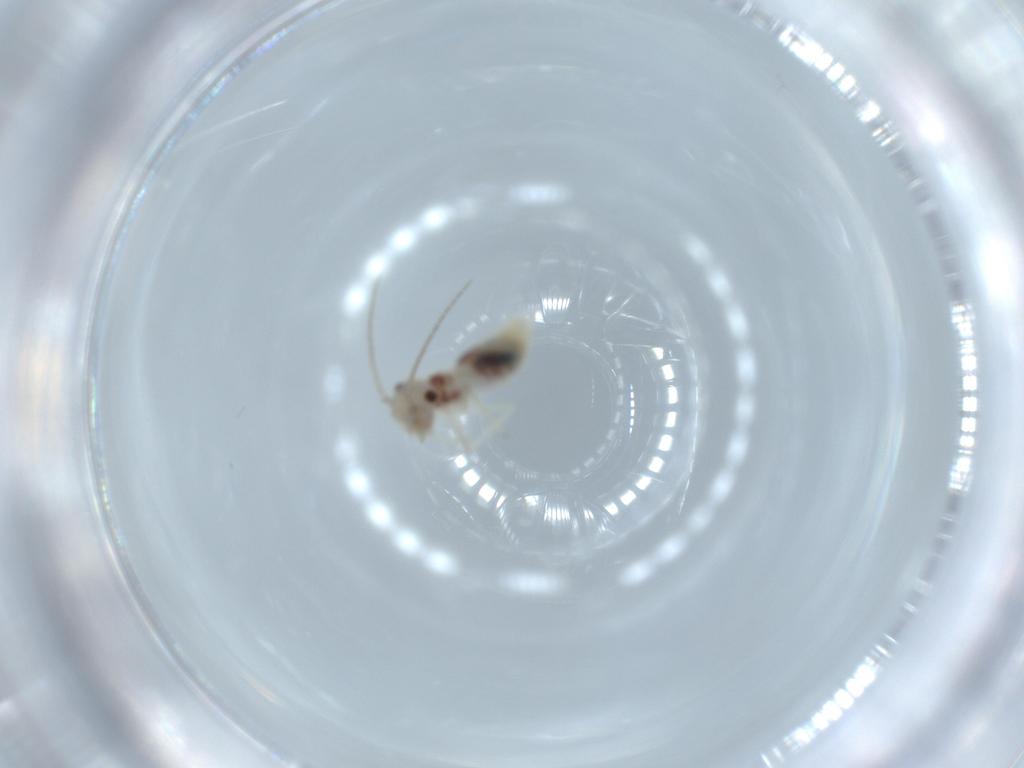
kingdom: Animalia
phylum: Arthropoda
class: Insecta
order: Psocodea
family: Caeciliusidae
